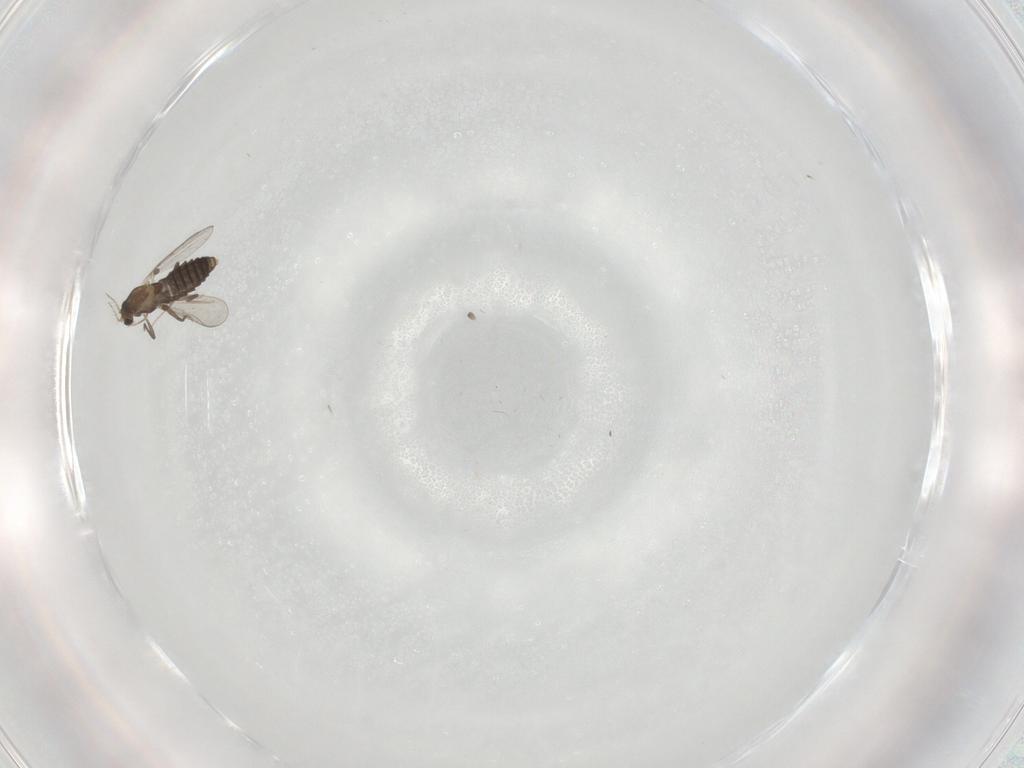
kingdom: Animalia
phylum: Arthropoda
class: Insecta
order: Diptera
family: Chironomidae
